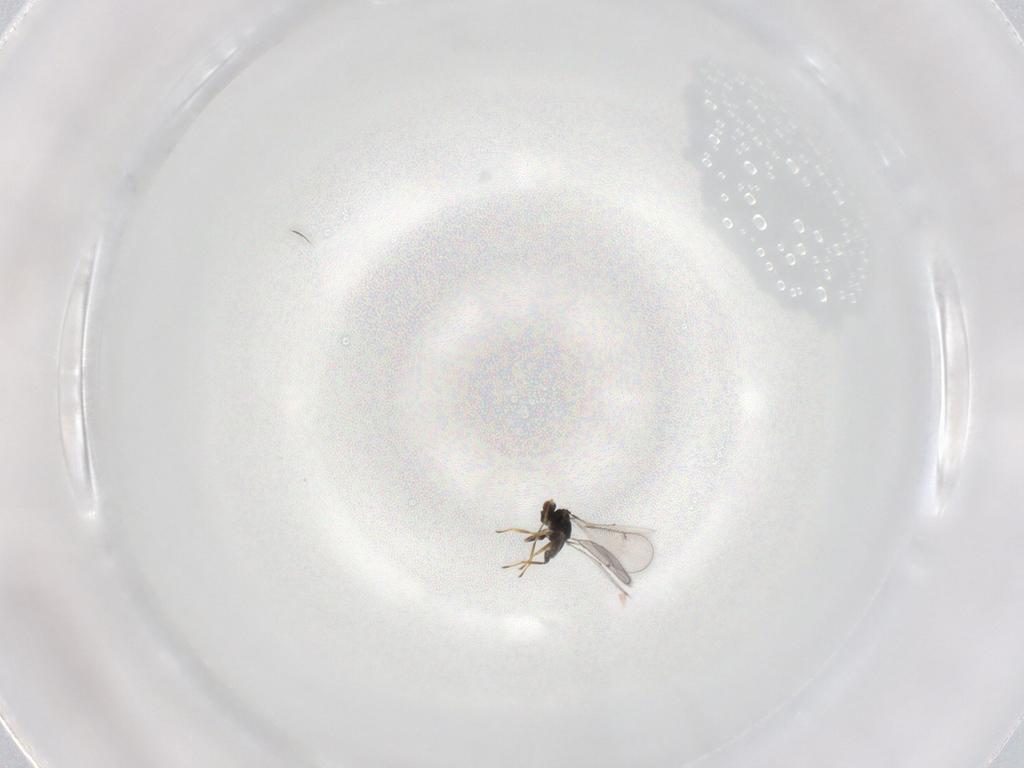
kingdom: Animalia
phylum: Arthropoda
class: Insecta
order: Hymenoptera
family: Eulophidae
